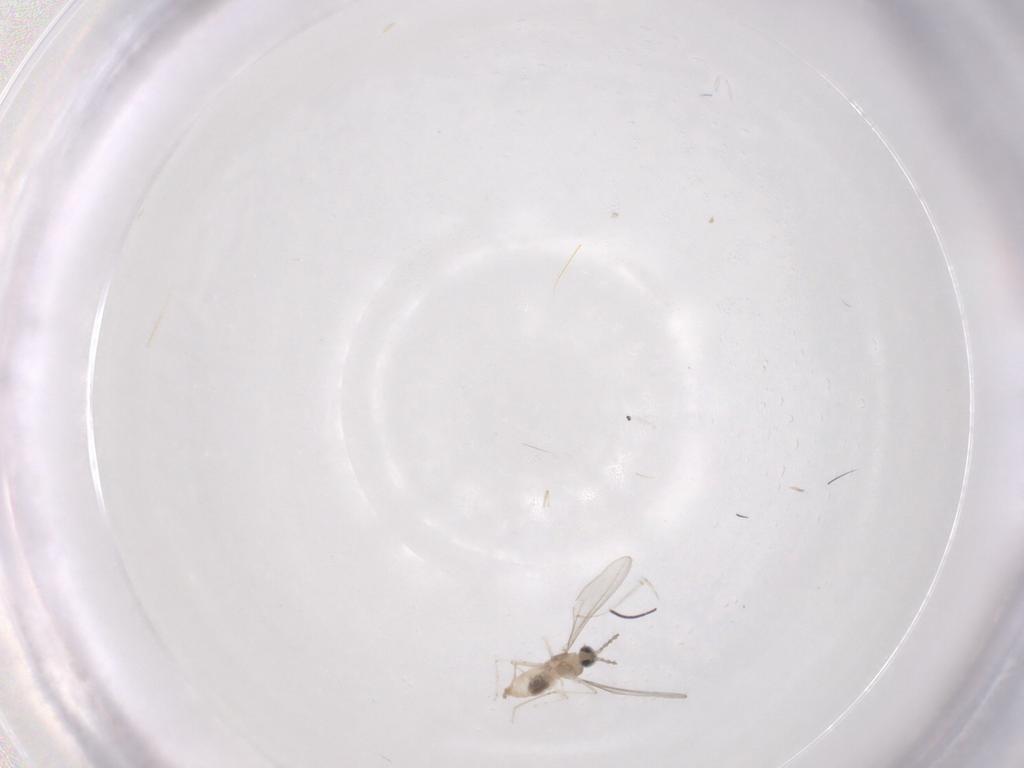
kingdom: Animalia
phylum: Arthropoda
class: Insecta
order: Diptera
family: Cecidomyiidae
